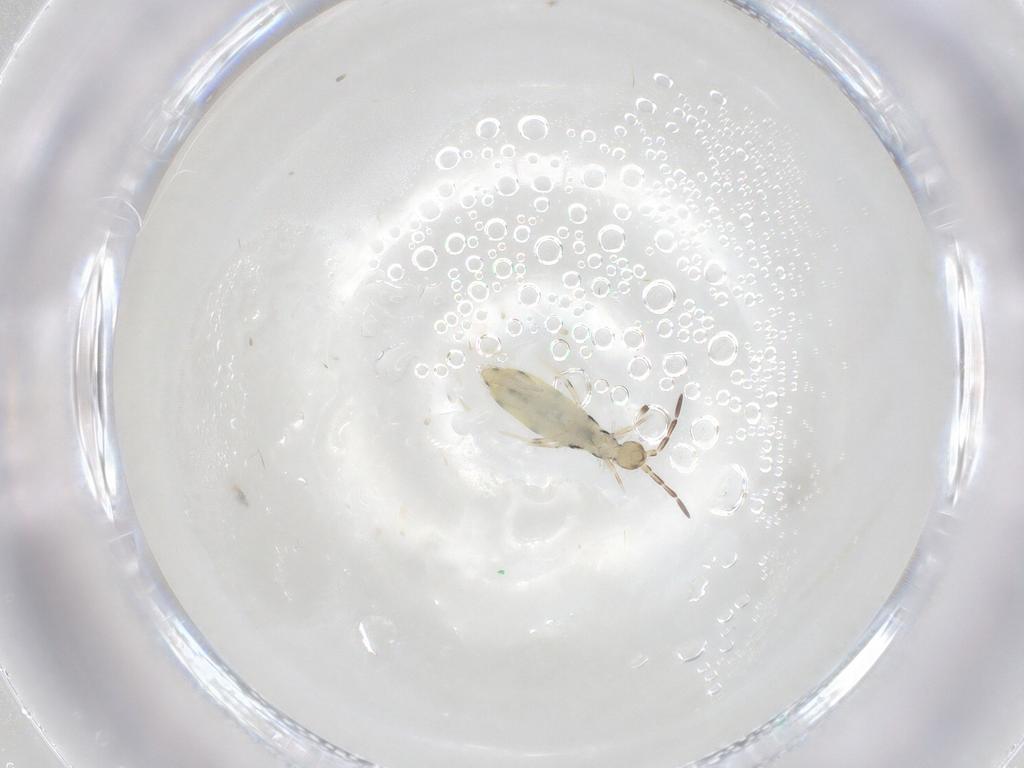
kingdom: Animalia
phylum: Arthropoda
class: Collembola
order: Entomobryomorpha
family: Entomobryidae
